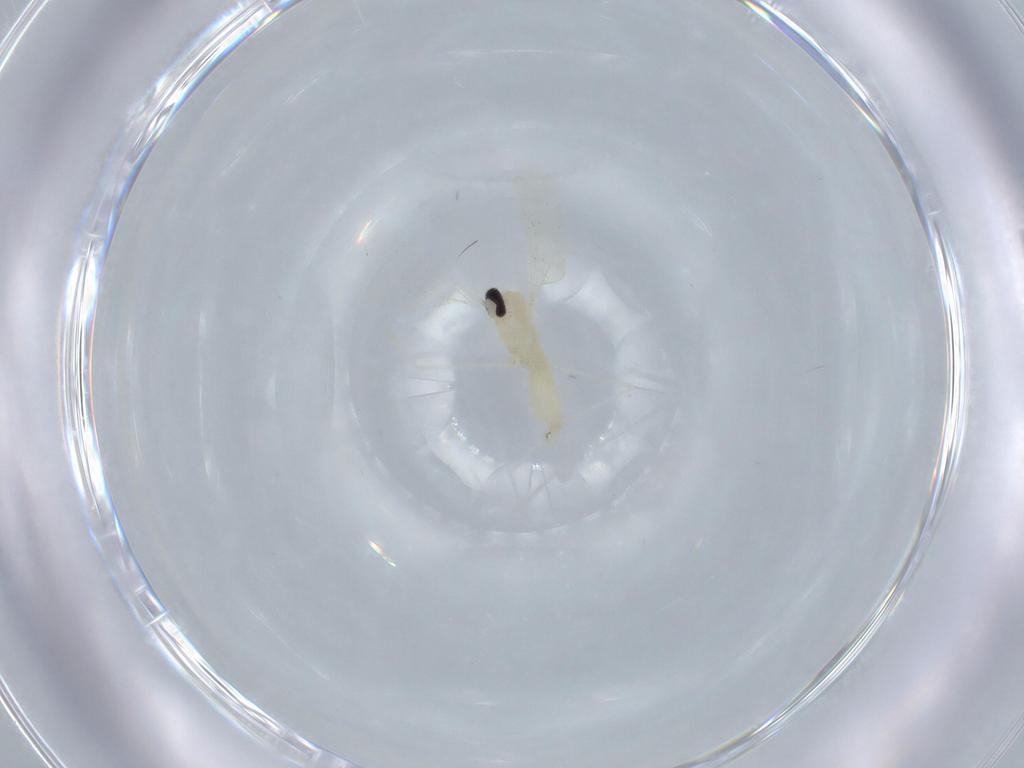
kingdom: Animalia
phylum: Arthropoda
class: Insecta
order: Diptera
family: Cecidomyiidae
